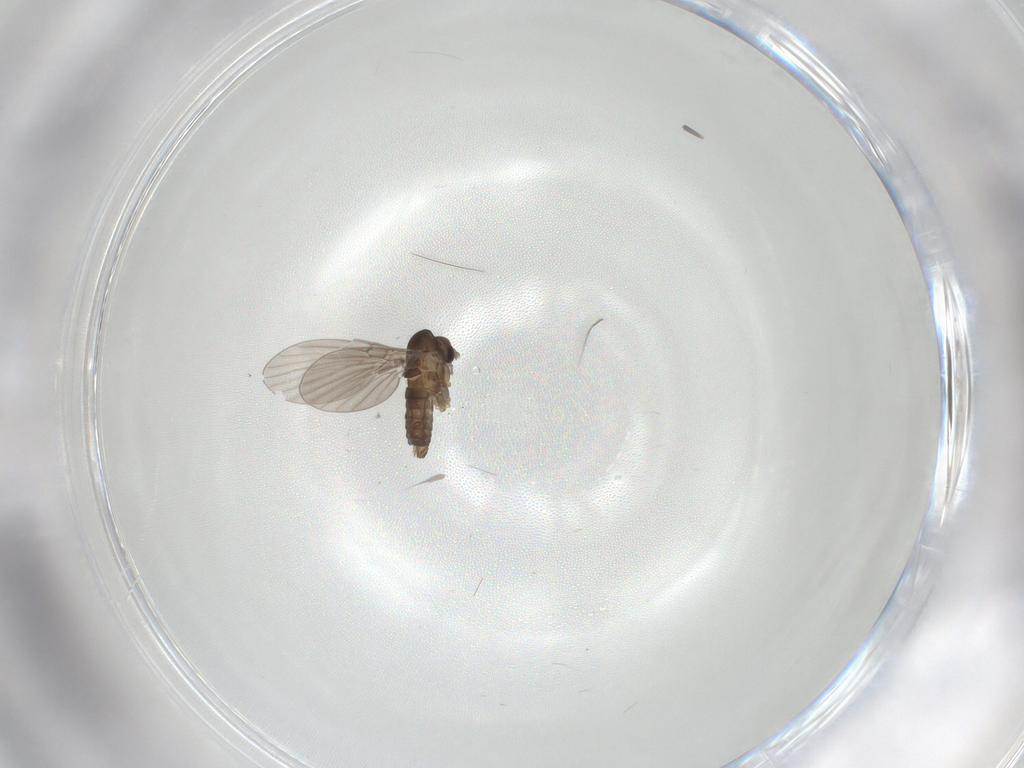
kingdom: Animalia
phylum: Arthropoda
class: Insecta
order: Diptera
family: Psychodidae
